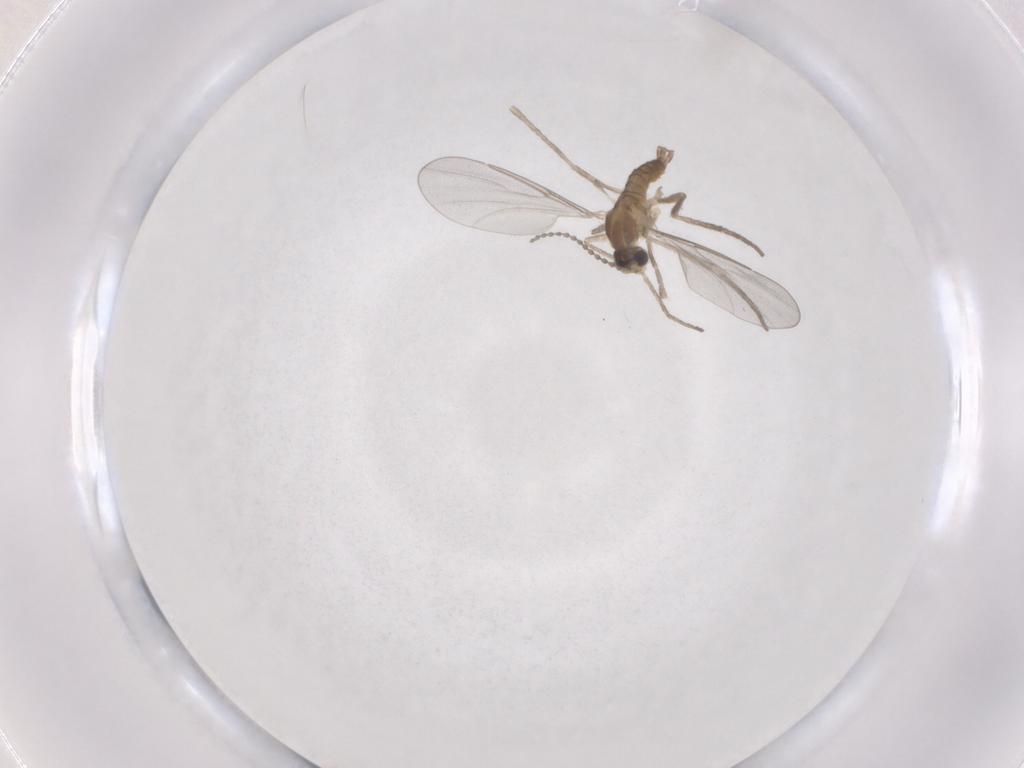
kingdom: Animalia
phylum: Arthropoda
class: Insecta
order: Diptera
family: Cecidomyiidae
